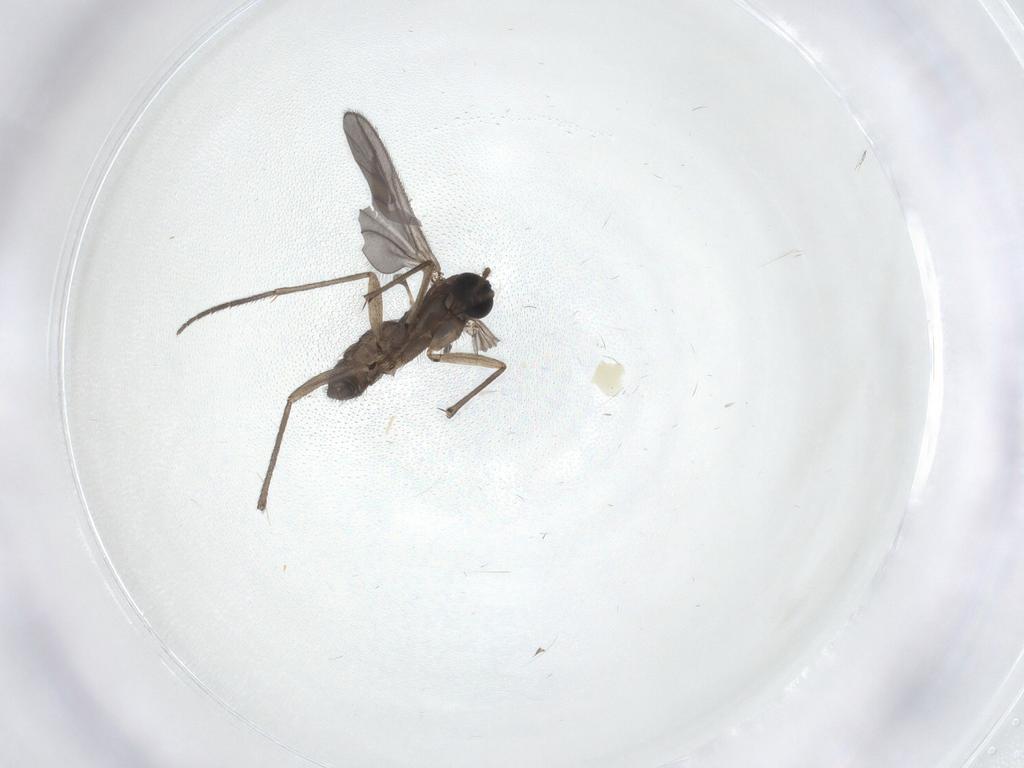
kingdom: Animalia
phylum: Arthropoda
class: Insecta
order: Diptera
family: Sciaridae
